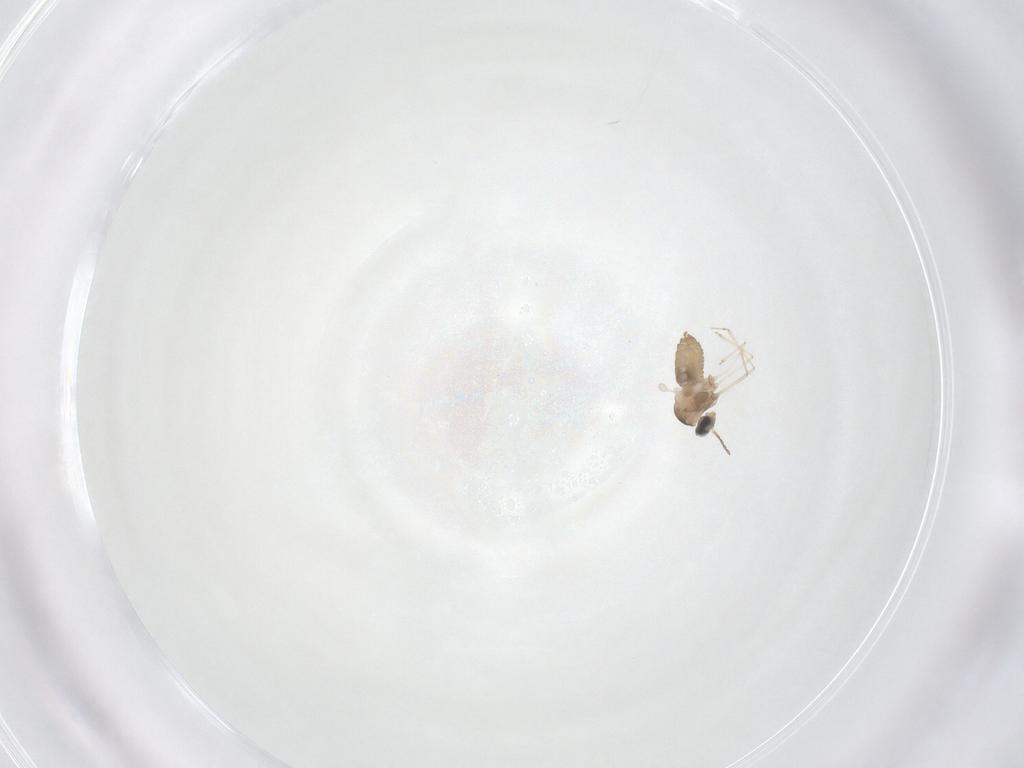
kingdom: Animalia
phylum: Arthropoda
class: Insecta
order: Diptera
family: Cecidomyiidae
